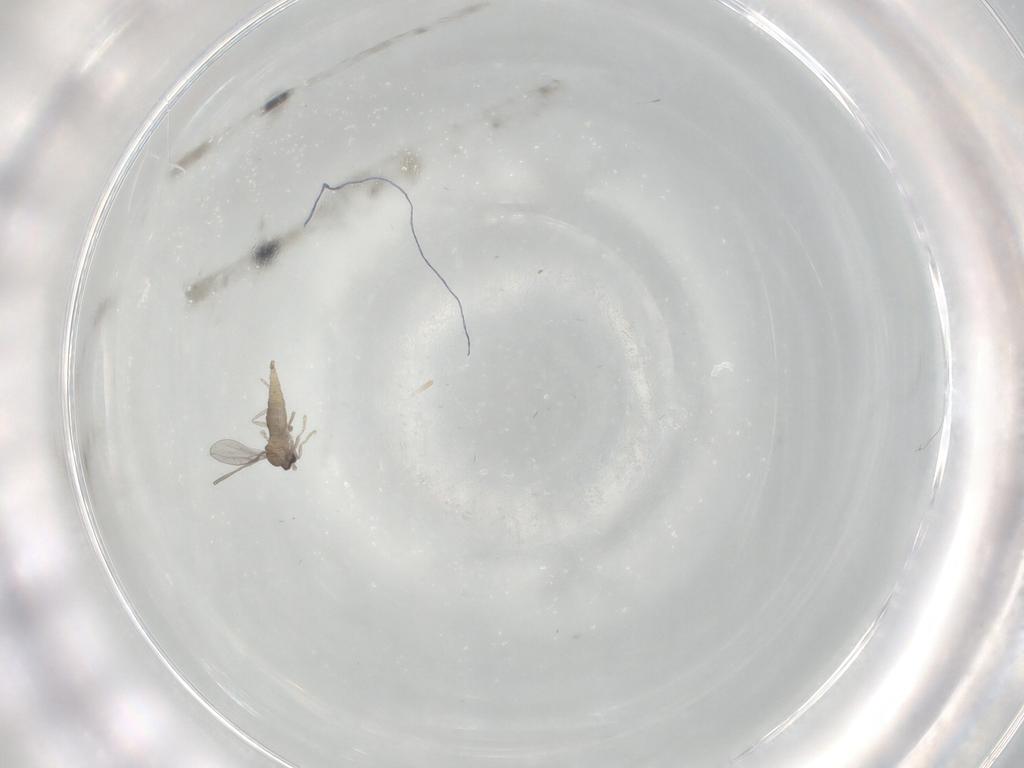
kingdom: Animalia
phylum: Arthropoda
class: Insecta
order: Diptera
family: Cecidomyiidae
